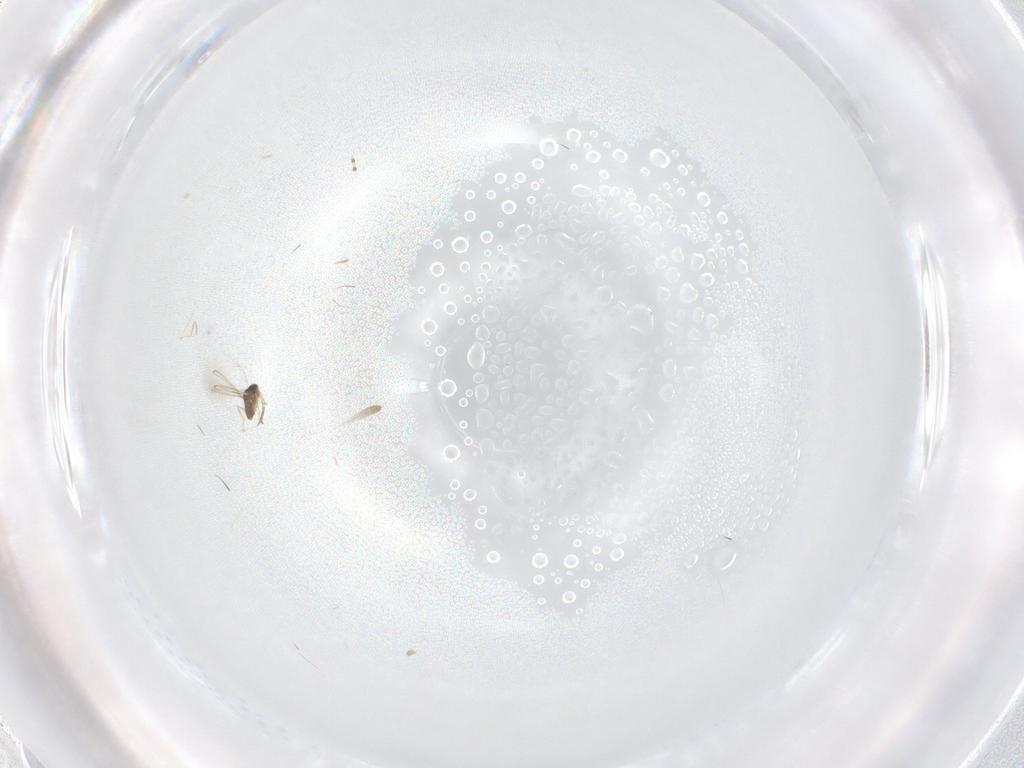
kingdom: Animalia
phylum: Arthropoda
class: Insecta
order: Hymenoptera
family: Mymaridae
